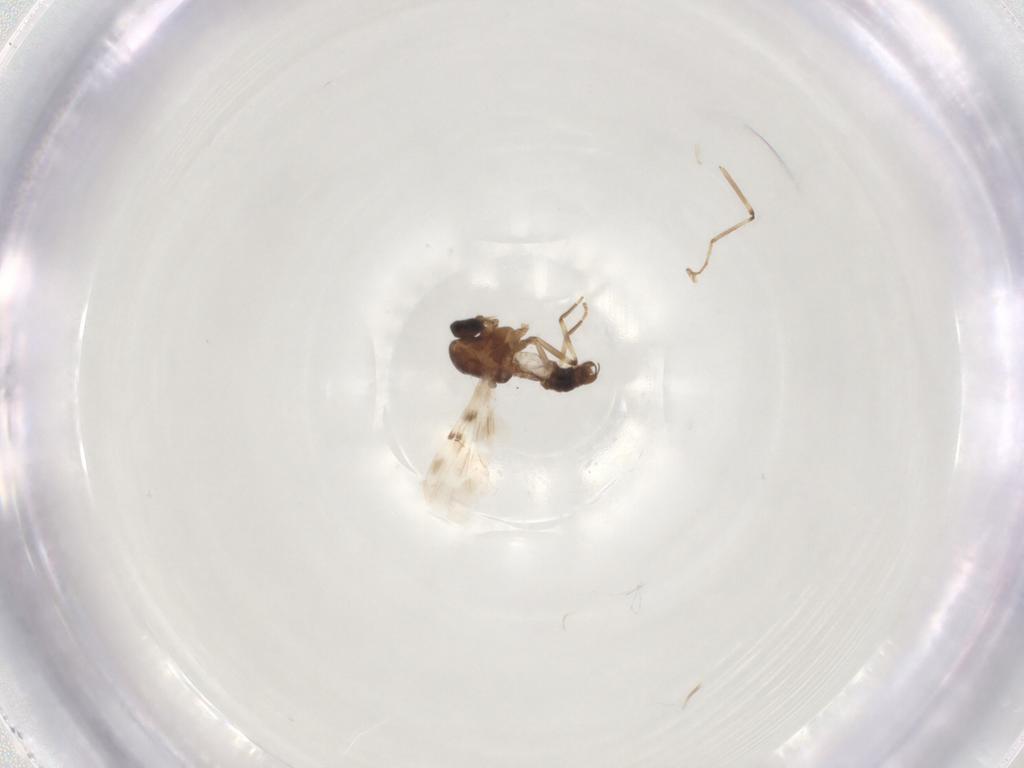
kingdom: Animalia
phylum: Arthropoda
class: Insecta
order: Diptera
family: Ceratopogonidae
